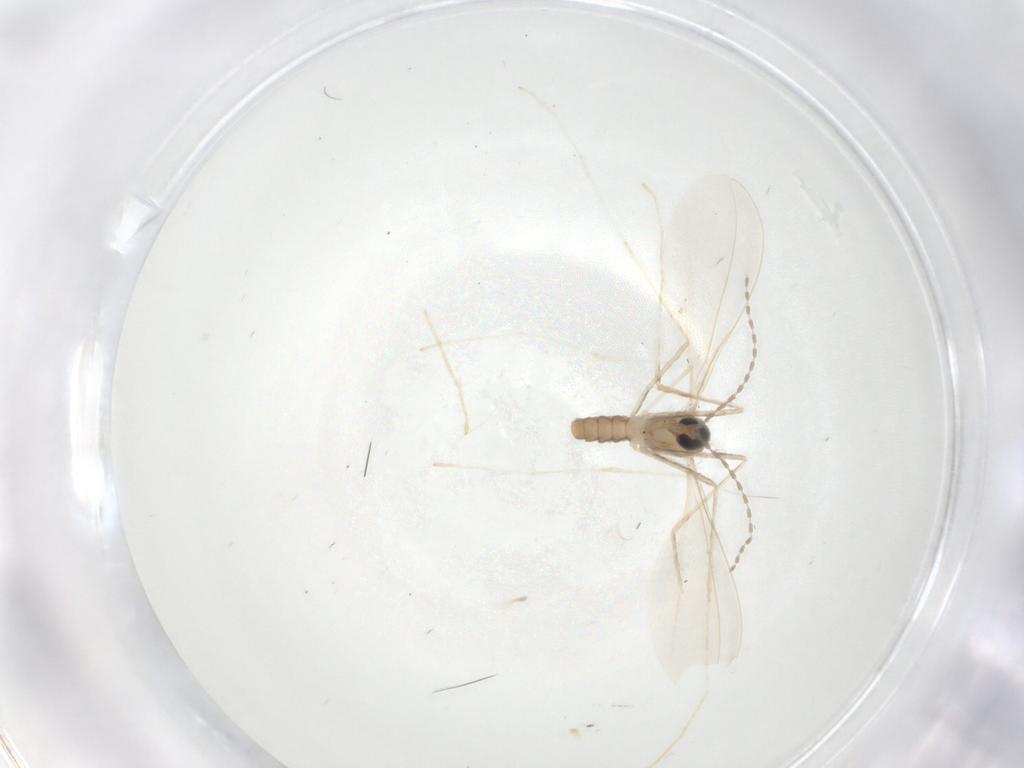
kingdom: Animalia
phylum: Arthropoda
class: Insecta
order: Diptera
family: Cecidomyiidae
